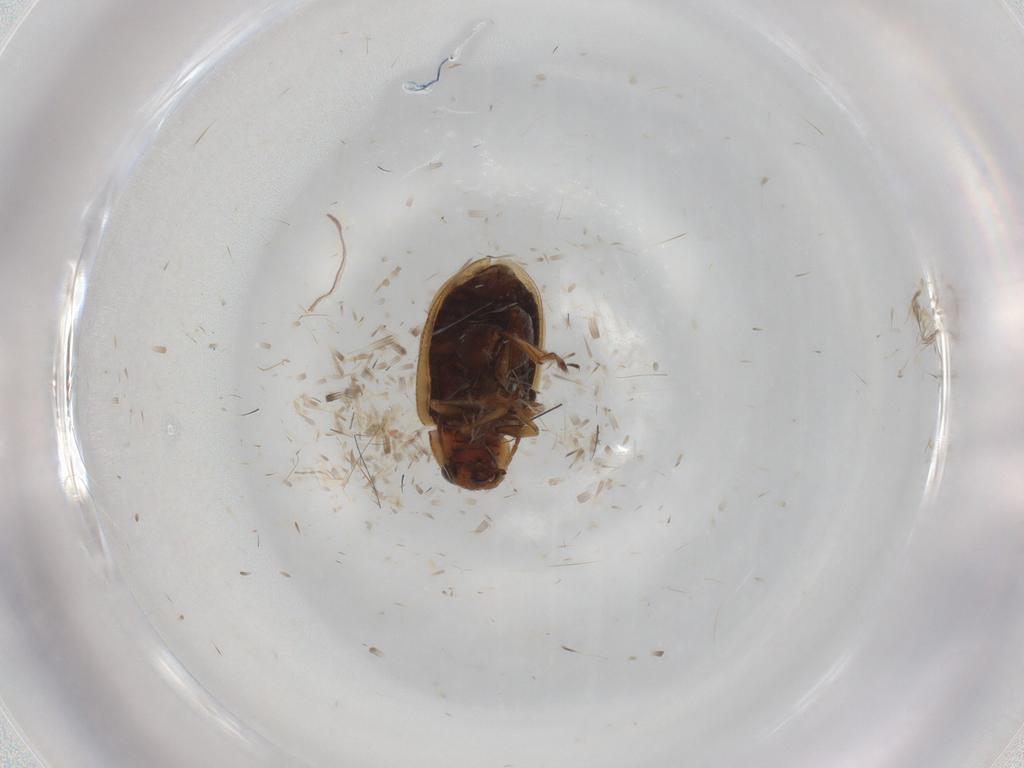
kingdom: Animalia
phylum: Arthropoda
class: Insecta
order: Coleoptera
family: Chrysomelidae
